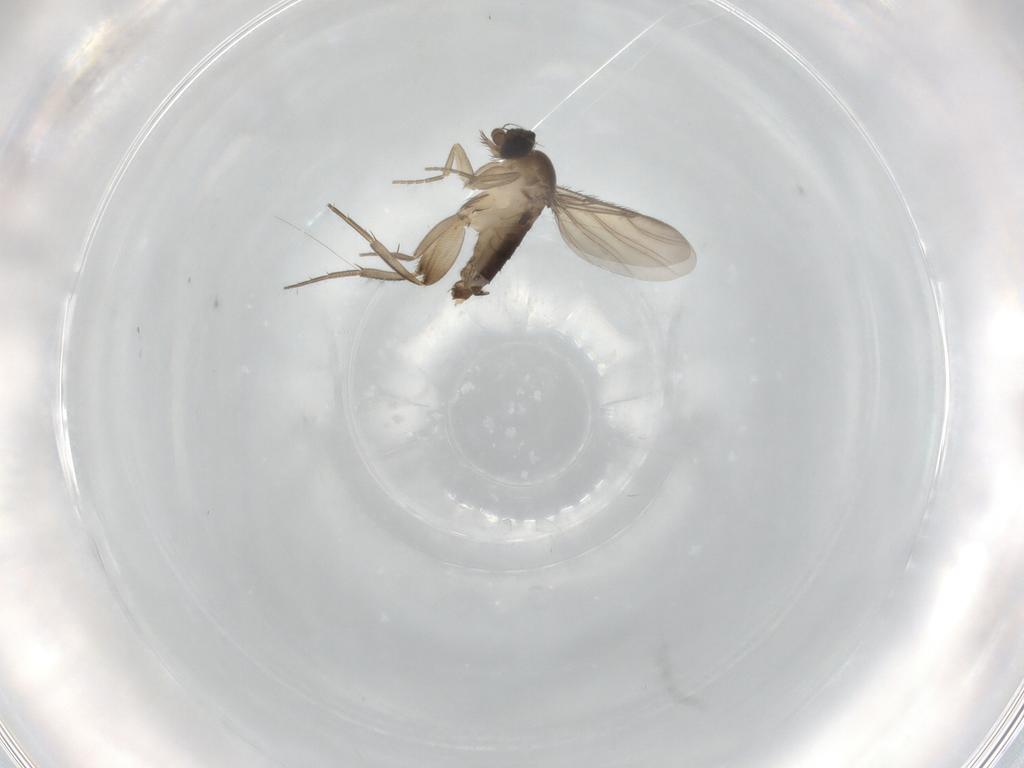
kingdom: Animalia
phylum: Arthropoda
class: Insecta
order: Diptera
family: Phoridae
